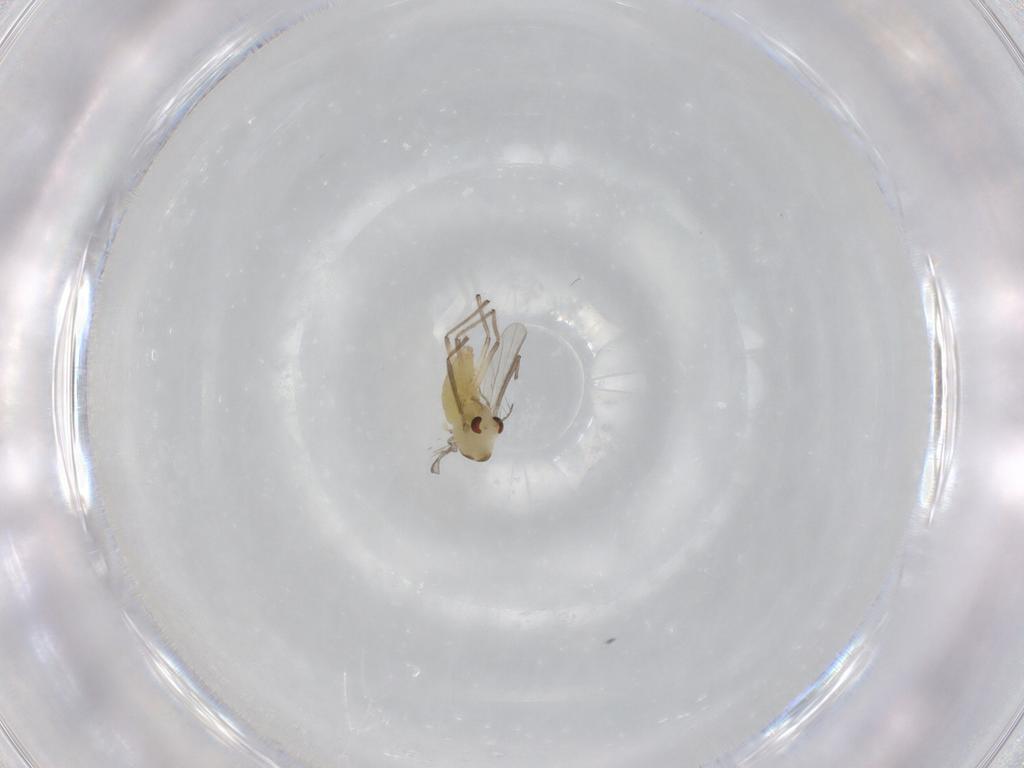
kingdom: Animalia
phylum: Arthropoda
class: Insecta
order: Diptera
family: Chironomidae
